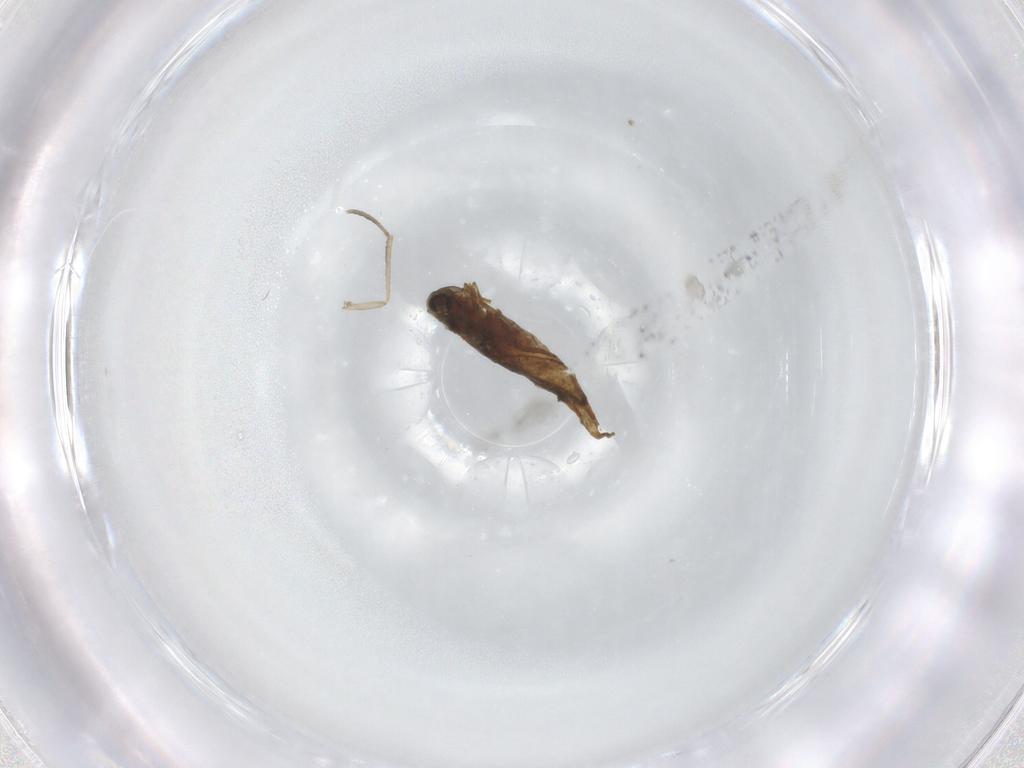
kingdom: Animalia
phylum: Arthropoda
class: Insecta
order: Diptera
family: Cecidomyiidae
